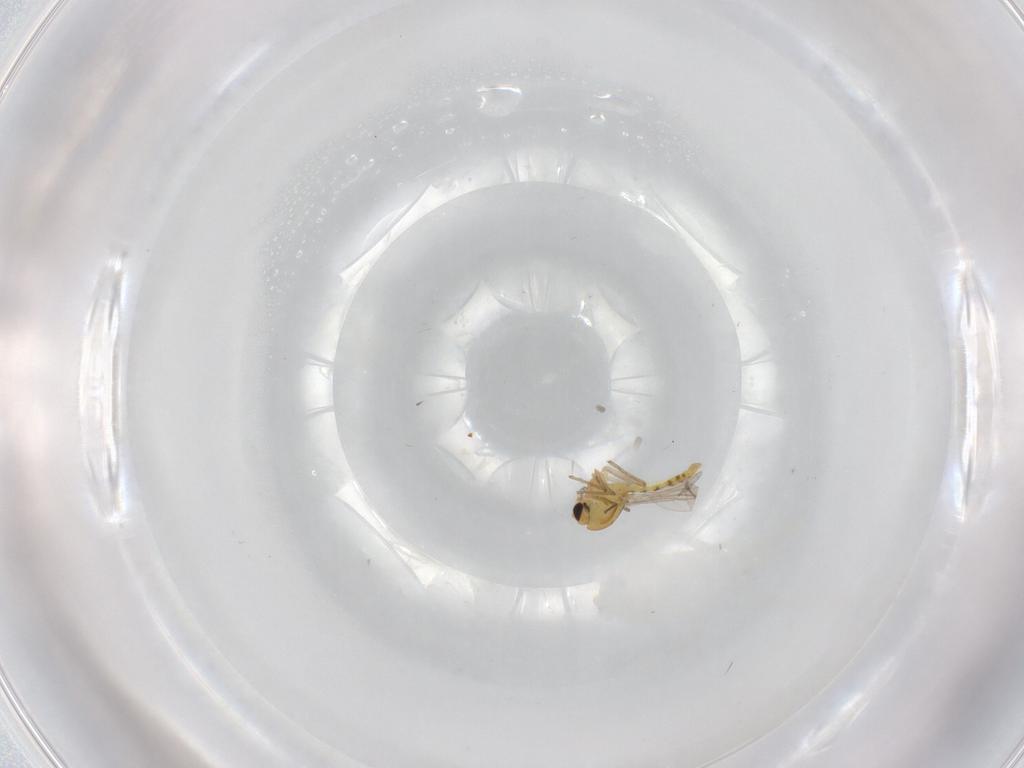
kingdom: Animalia
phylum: Arthropoda
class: Insecta
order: Diptera
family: Chironomidae
